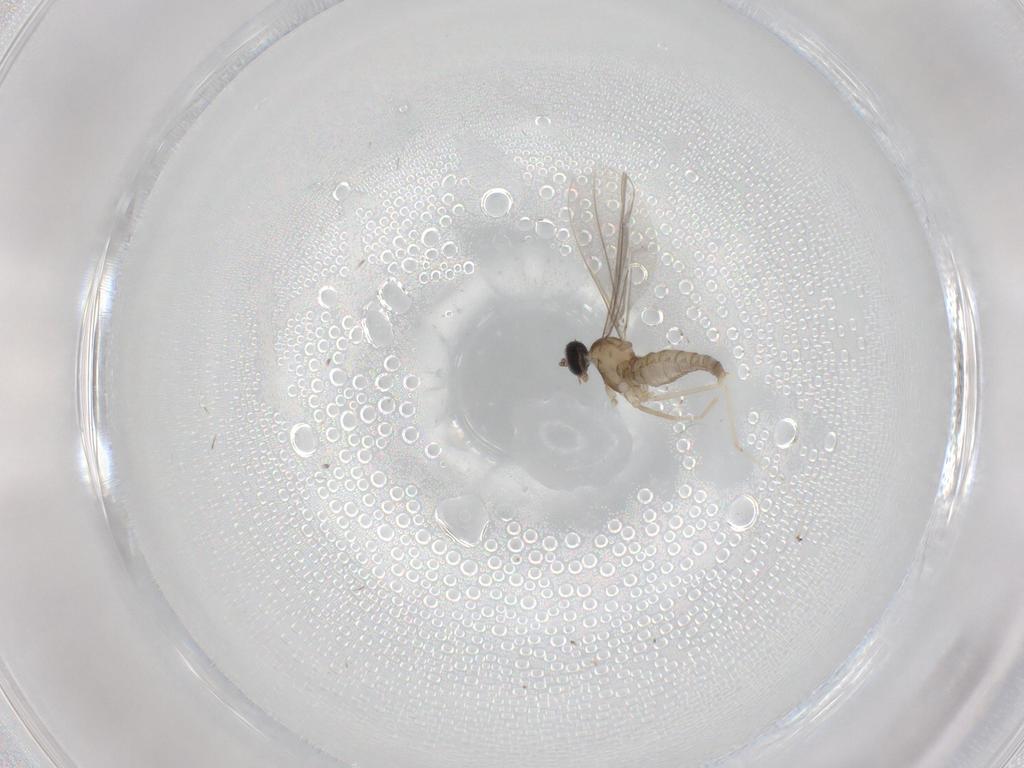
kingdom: Animalia
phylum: Arthropoda
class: Insecta
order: Diptera
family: Chironomidae
